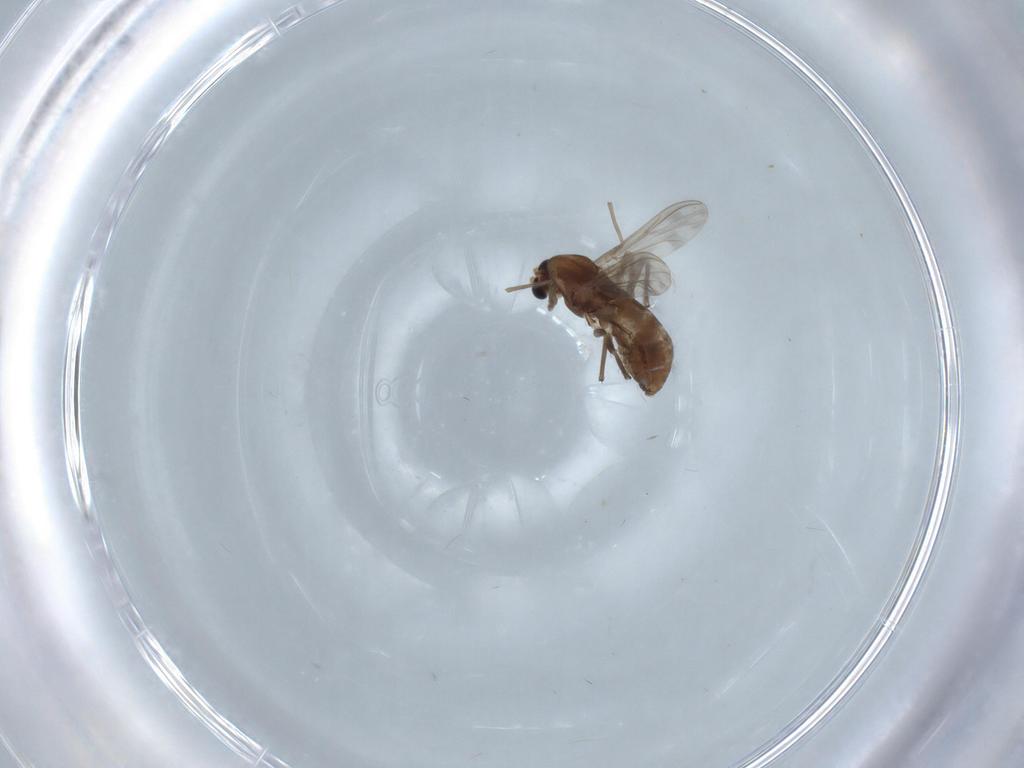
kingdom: Animalia
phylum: Arthropoda
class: Insecta
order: Diptera
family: Chironomidae
